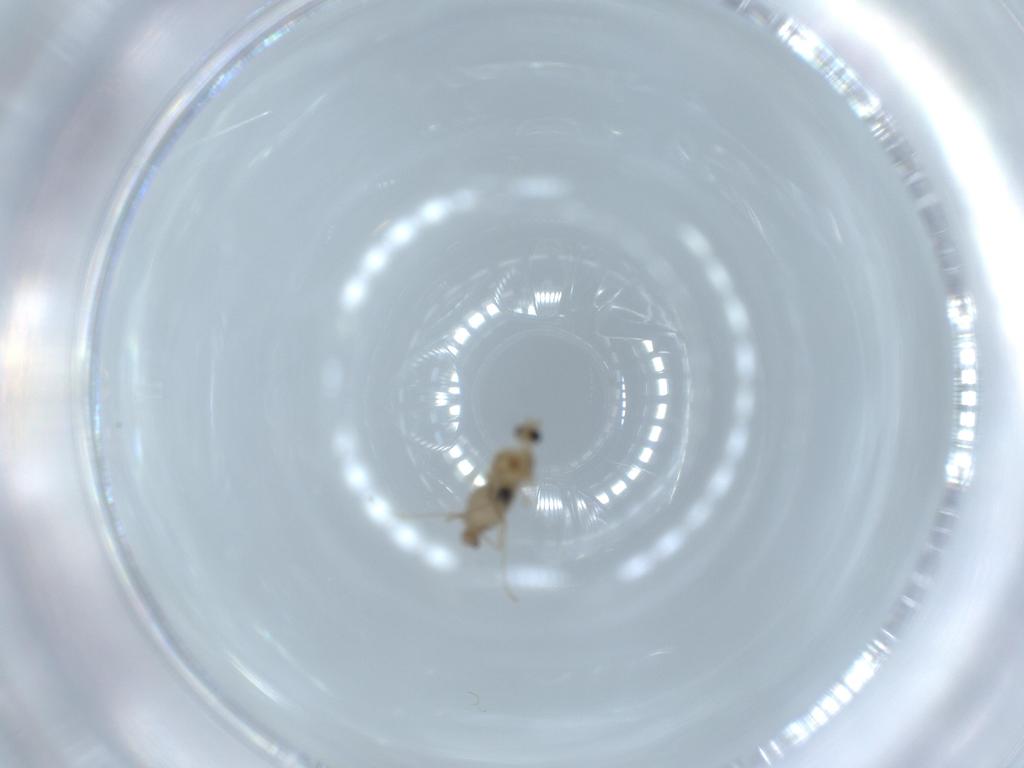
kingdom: Animalia
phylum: Arthropoda
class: Insecta
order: Diptera
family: Cecidomyiidae
